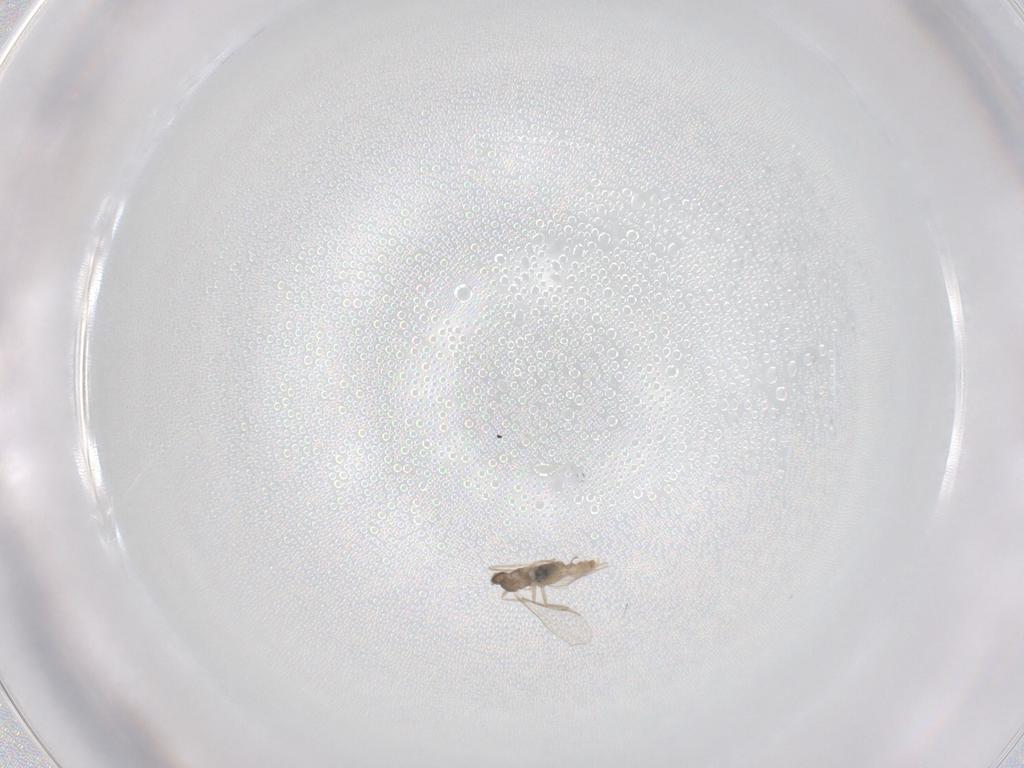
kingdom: Animalia
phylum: Arthropoda
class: Insecta
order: Diptera
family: Cecidomyiidae
